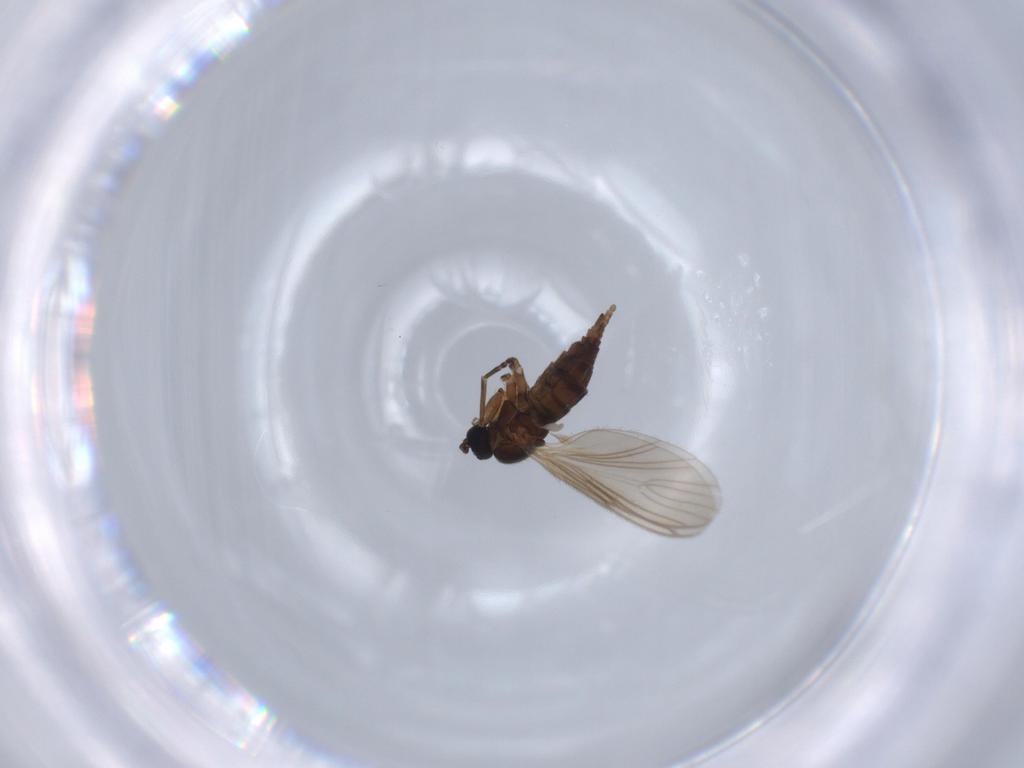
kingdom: Animalia
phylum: Arthropoda
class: Insecta
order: Diptera
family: Sciaridae
